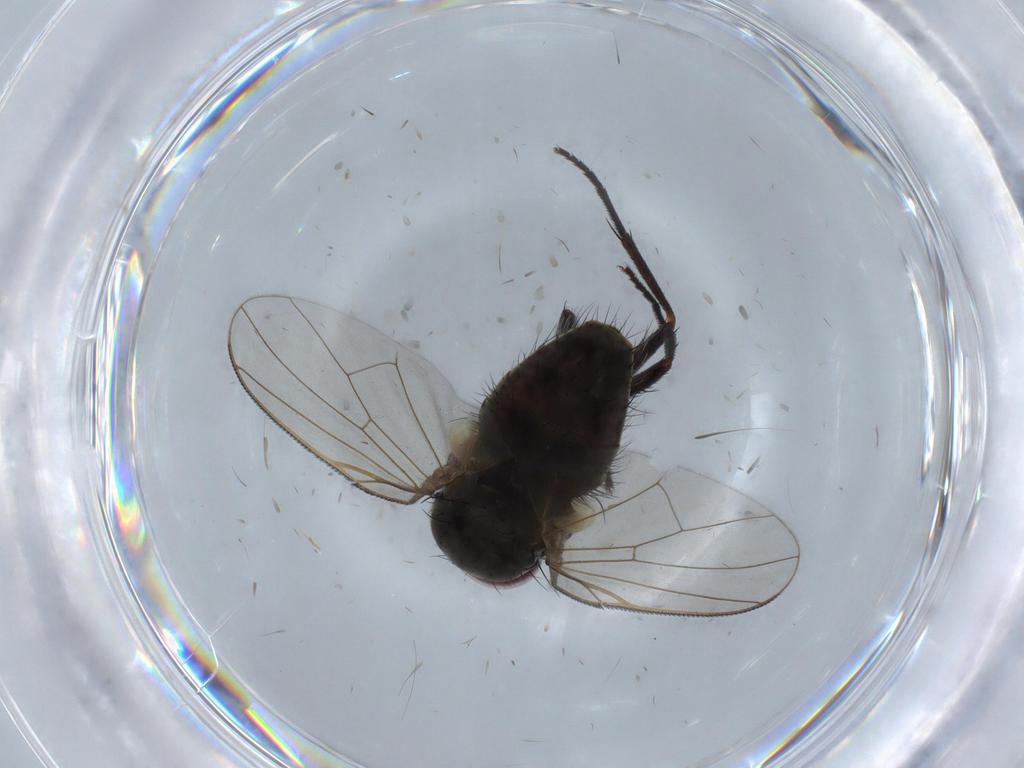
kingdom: Animalia
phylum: Arthropoda
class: Insecta
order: Diptera
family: Muscidae
